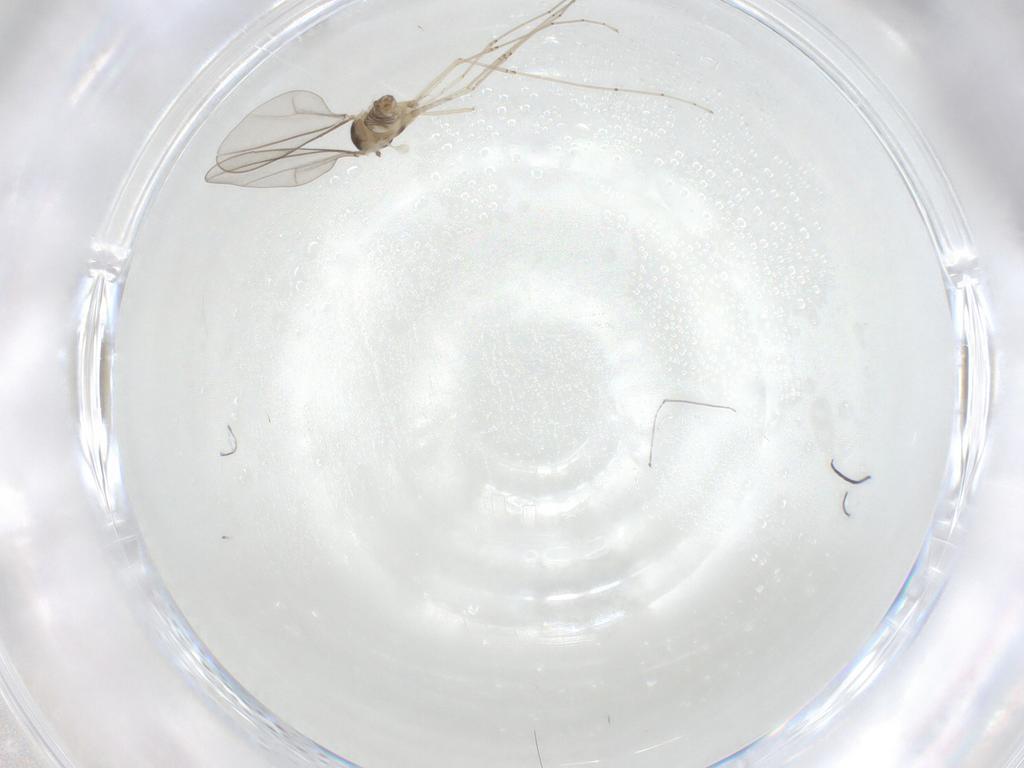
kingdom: Animalia
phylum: Arthropoda
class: Insecta
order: Diptera
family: Cecidomyiidae
